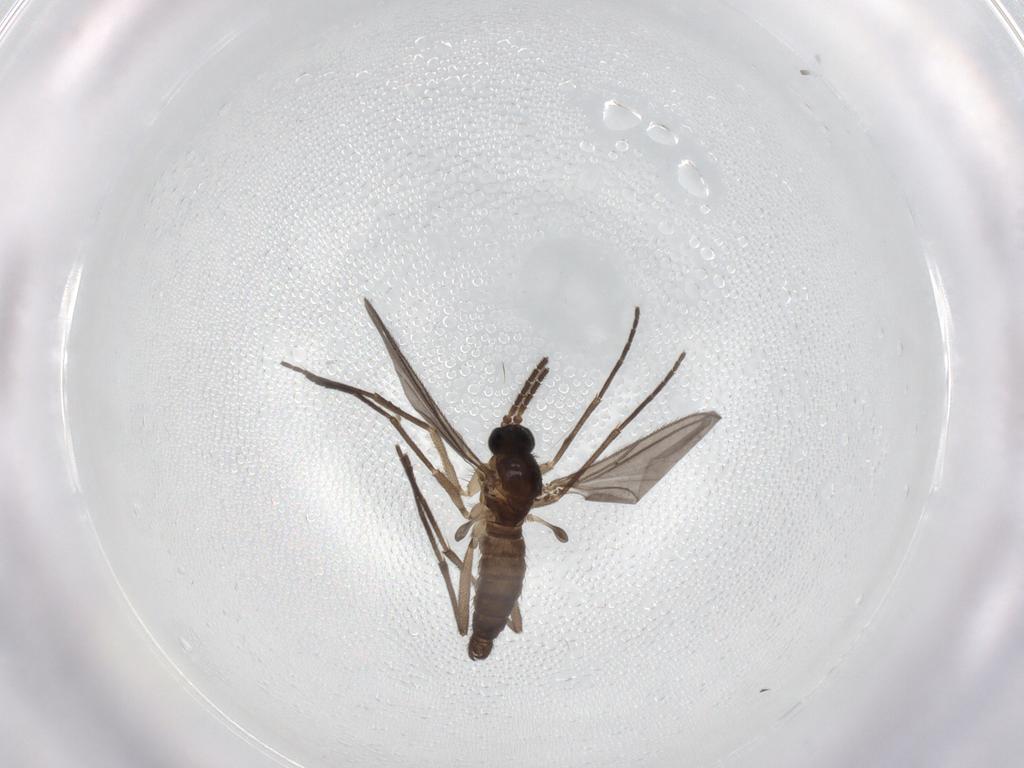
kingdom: Animalia
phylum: Arthropoda
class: Insecta
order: Diptera
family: Sciaridae
